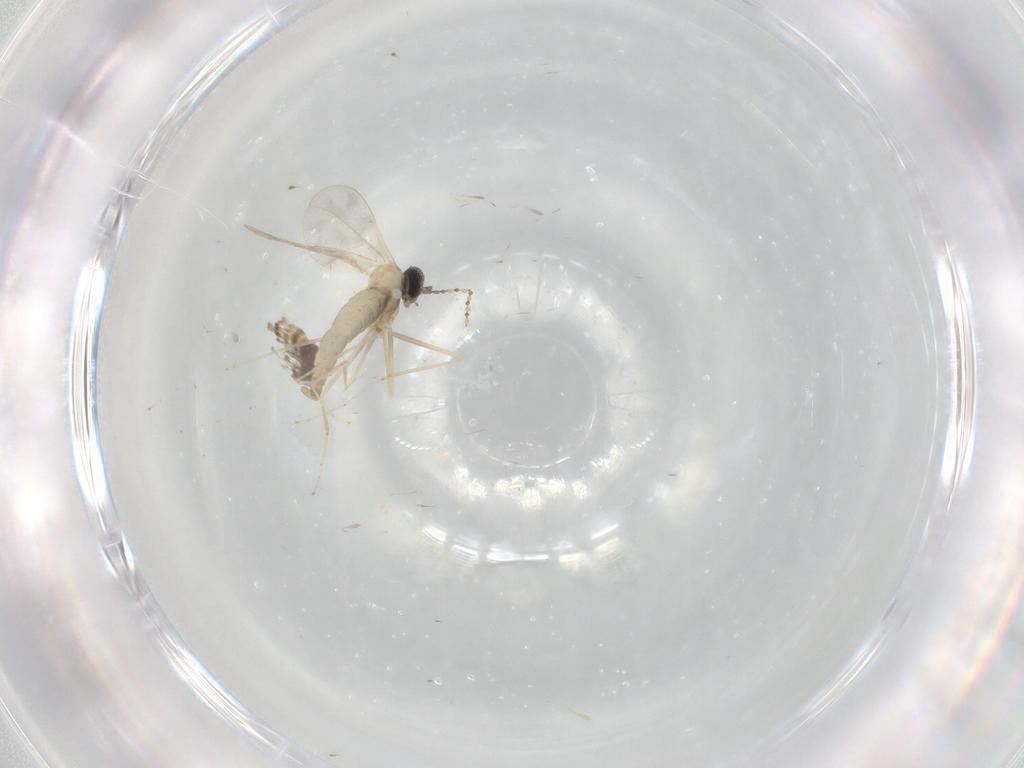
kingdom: Animalia
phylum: Arthropoda
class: Insecta
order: Diptera
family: Cecidomyiidae
